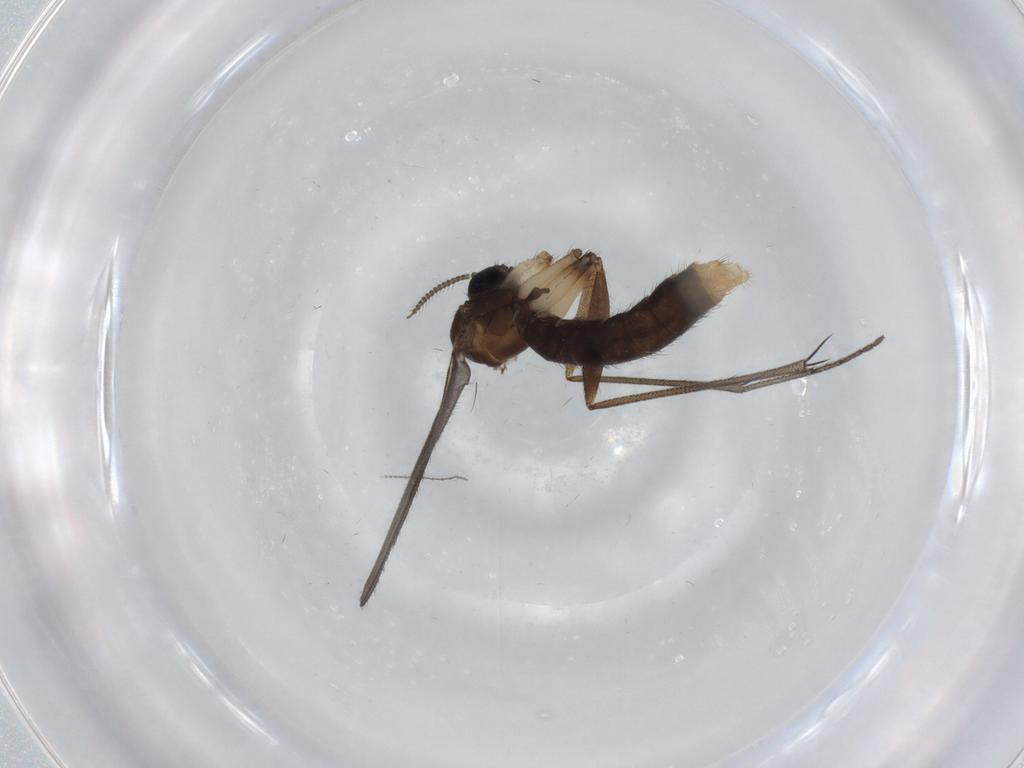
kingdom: Animalia
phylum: Arthropoda
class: Insecta
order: Diptera
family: Ditomyiidae
